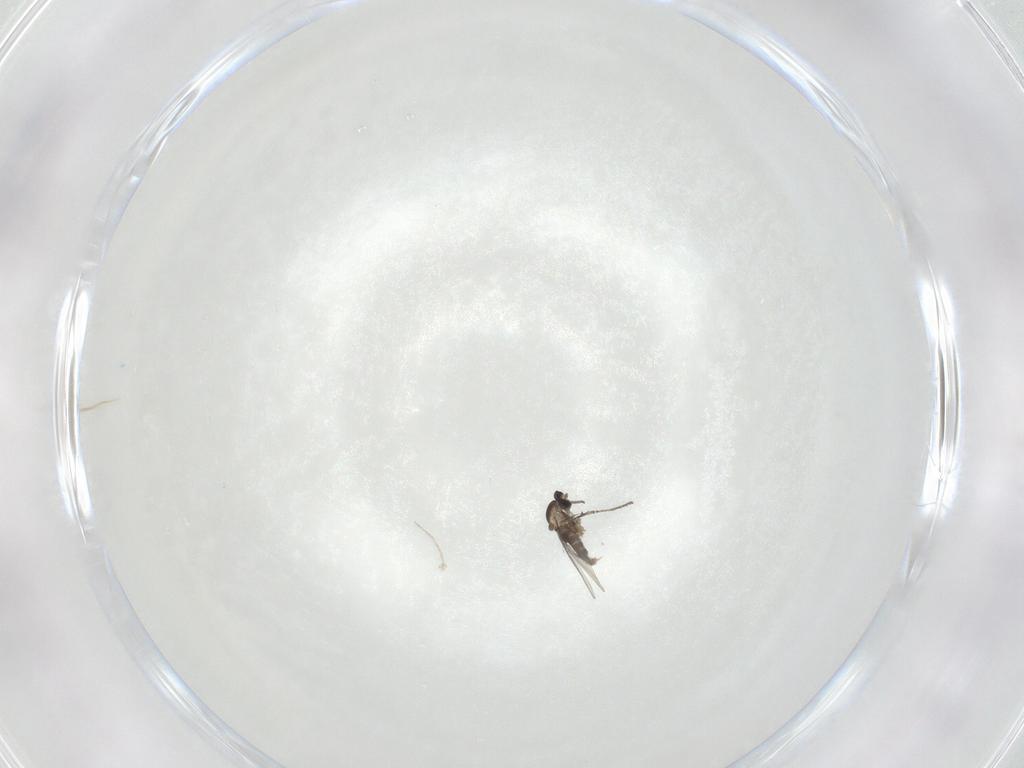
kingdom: Animalia
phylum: Arthropoda
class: Insecta
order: Diptera
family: Cecidomyiidae
